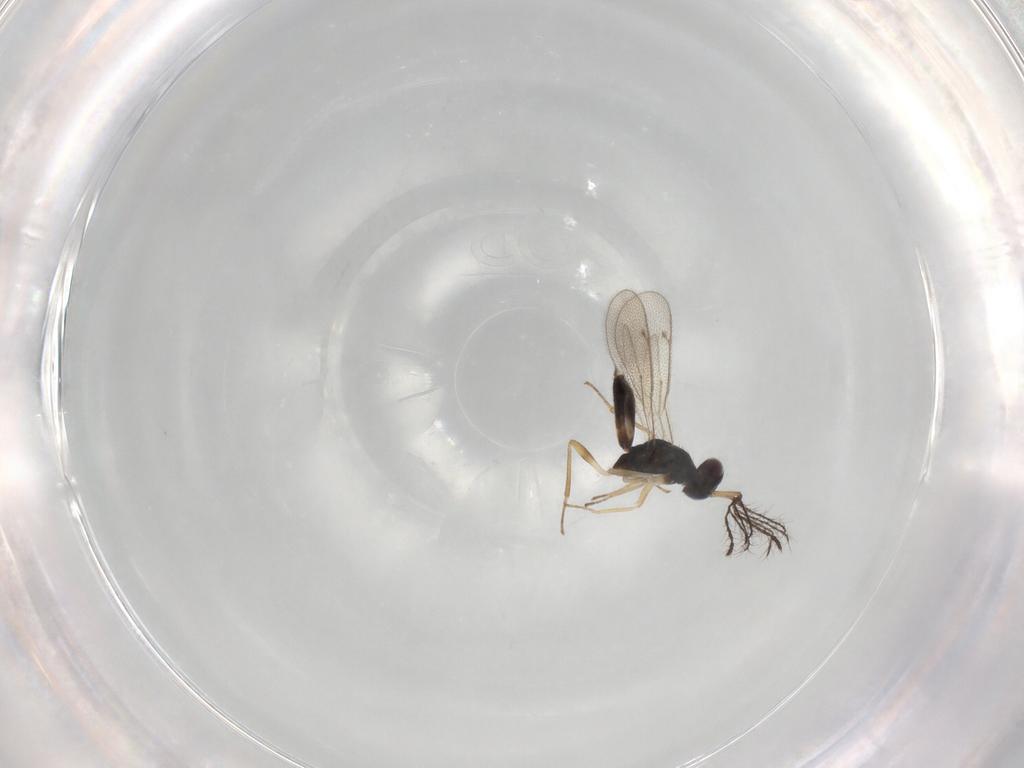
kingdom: Animalia
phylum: Arthropoda
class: Insecta
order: Hymenoptera
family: Eulophidae
